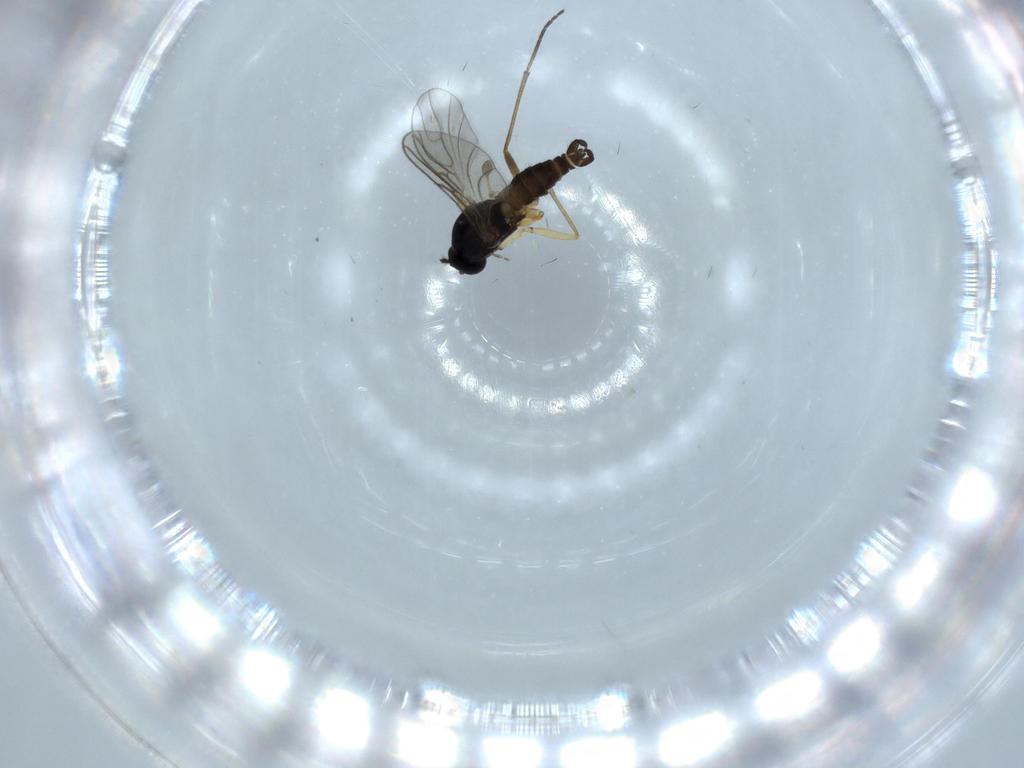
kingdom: Animalia
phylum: Arthropoda
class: Insecta
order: Diptera
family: Sciaridae
